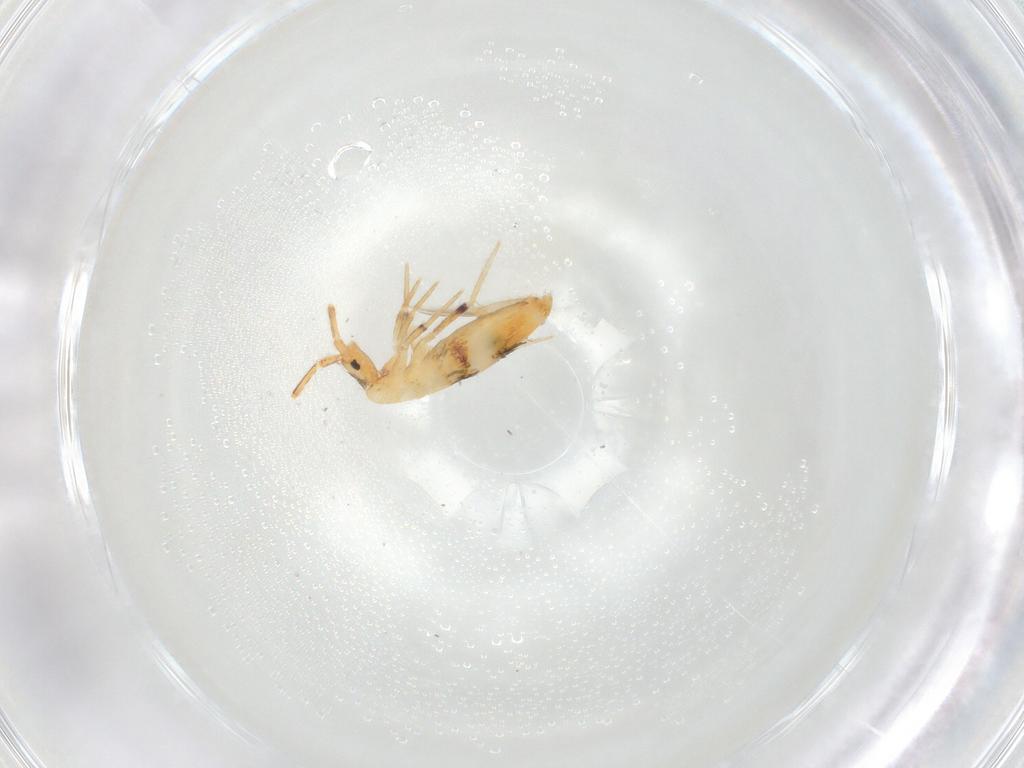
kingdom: Animalia
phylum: Arthropoda
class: Collembola
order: Entomobryomorpha
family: Entomobryidae
